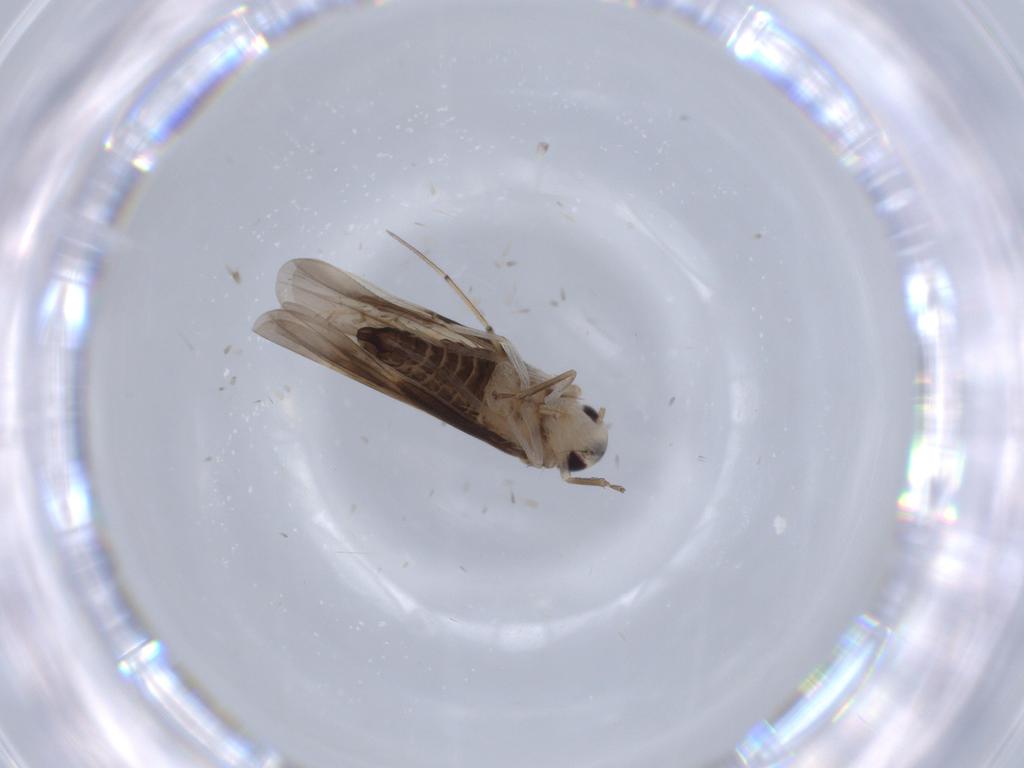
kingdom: Animalia
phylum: Arthropoda
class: Insecta
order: Hemiptera
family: Cicadellidae
